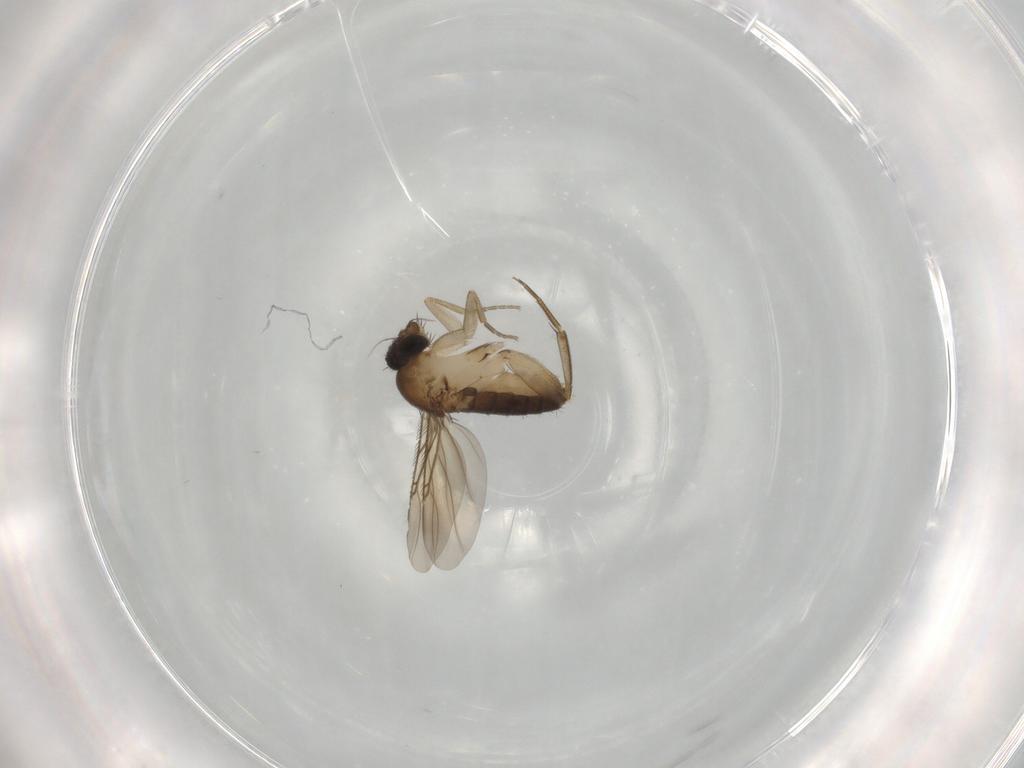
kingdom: Animalia
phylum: Arthropoda
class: Insecta
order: Diptera
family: Phoridae
